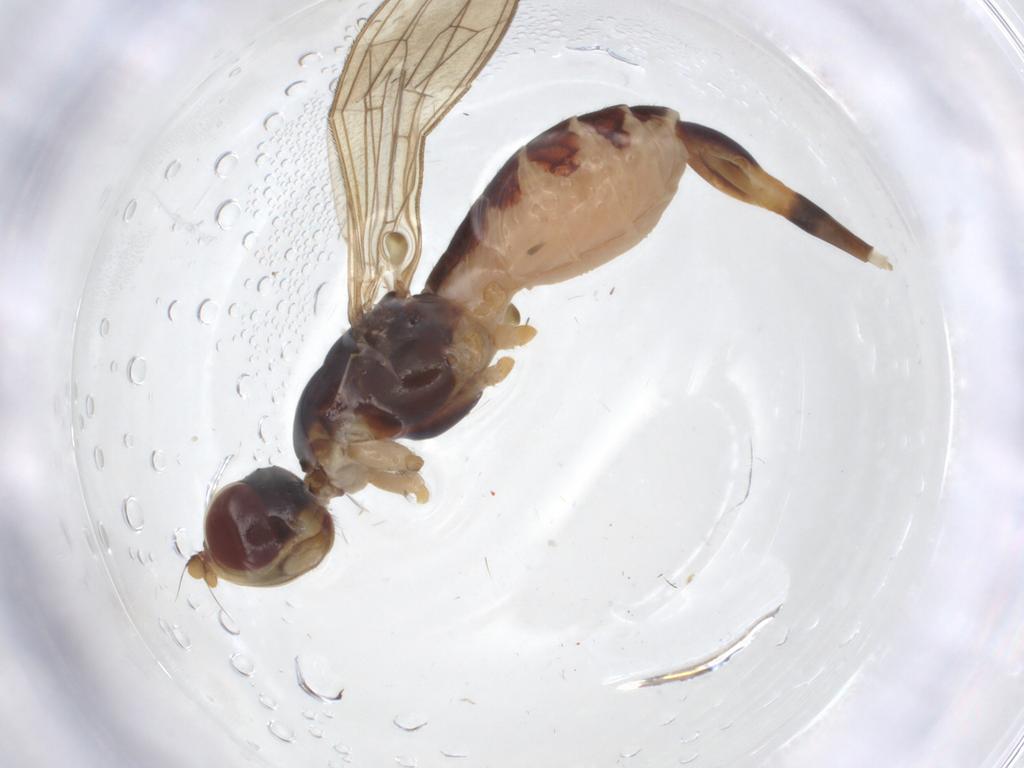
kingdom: Animalia
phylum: Arthropoda
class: Insecta
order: Diptera
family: Micropezidae
